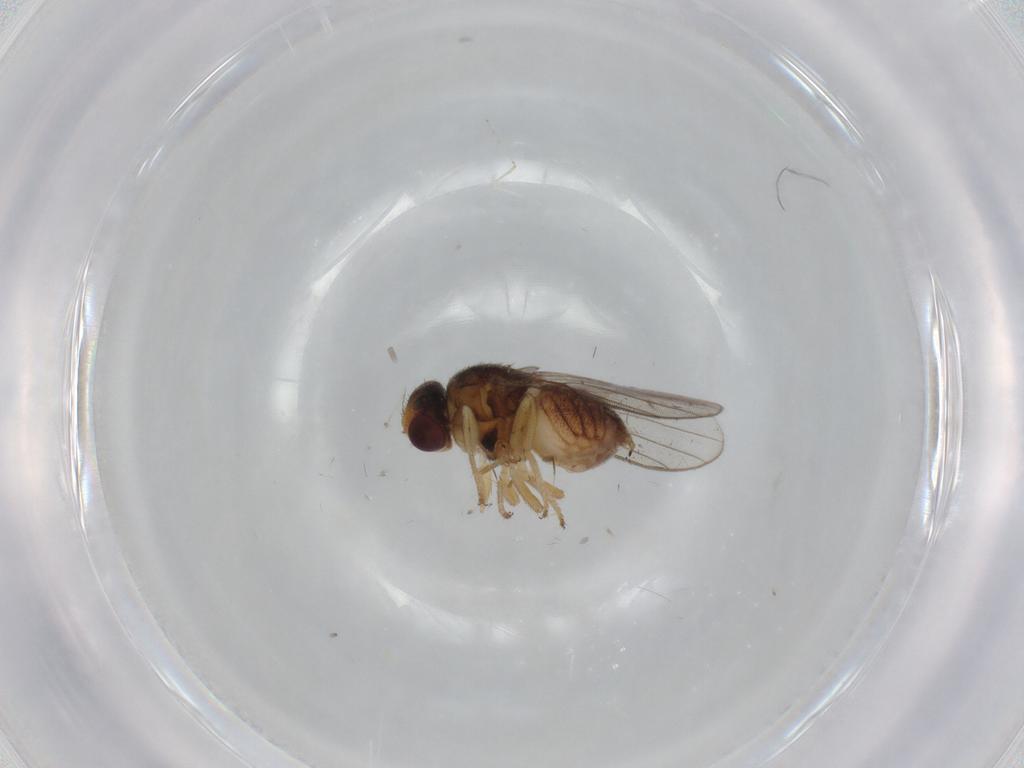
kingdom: Animalia
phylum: Arthropoda
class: Insecta
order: Diptera
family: Chloropidae
